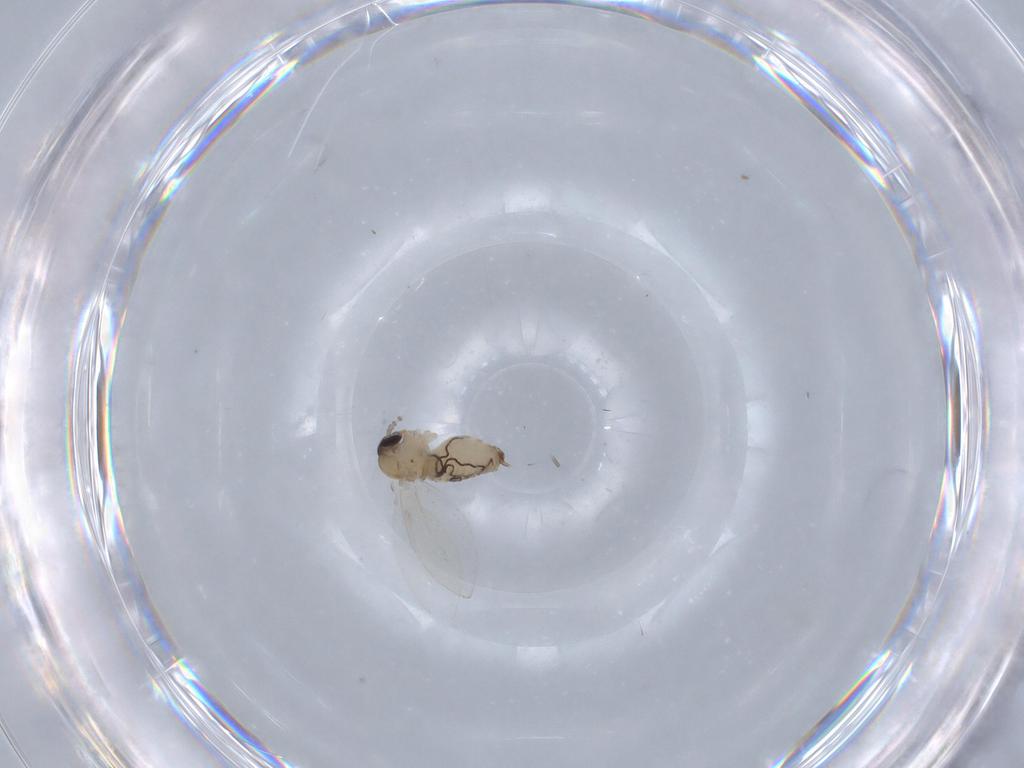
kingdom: Animalia
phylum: Arthropoda
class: Insecta
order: Diptera
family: Psychodidae
